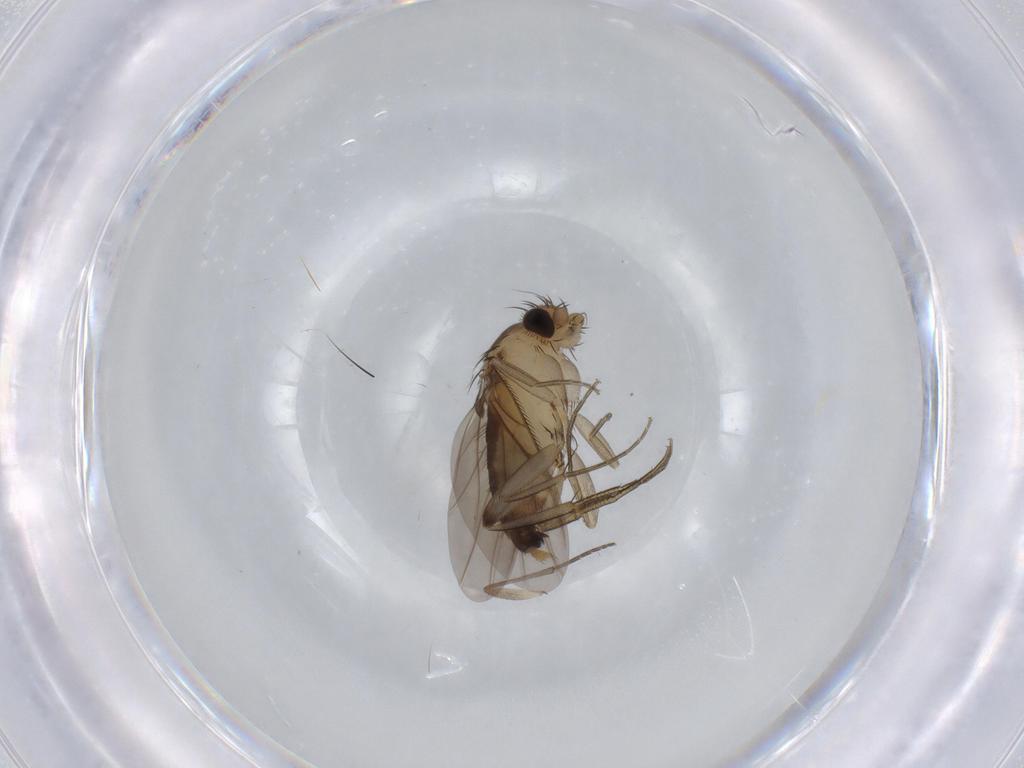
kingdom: Animalia
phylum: Arthropoda
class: Insecta
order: Diptera
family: Phoridae
